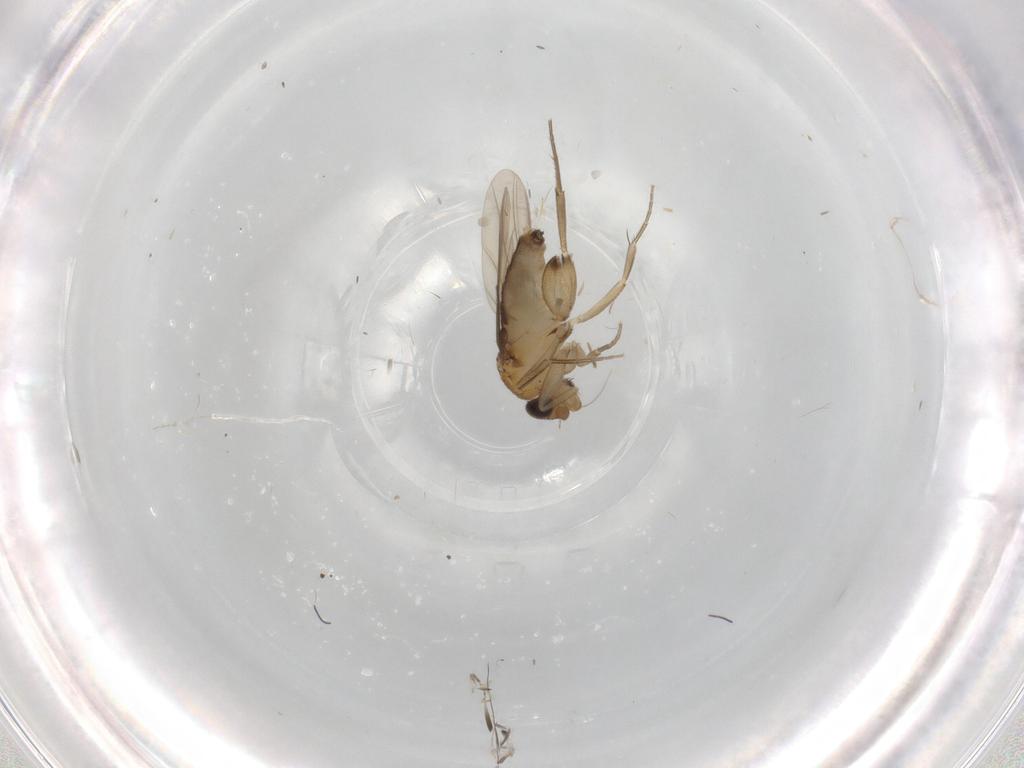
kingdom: Animalia
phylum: Arthropoda
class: Insecta
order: Diptera
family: Phoridae
